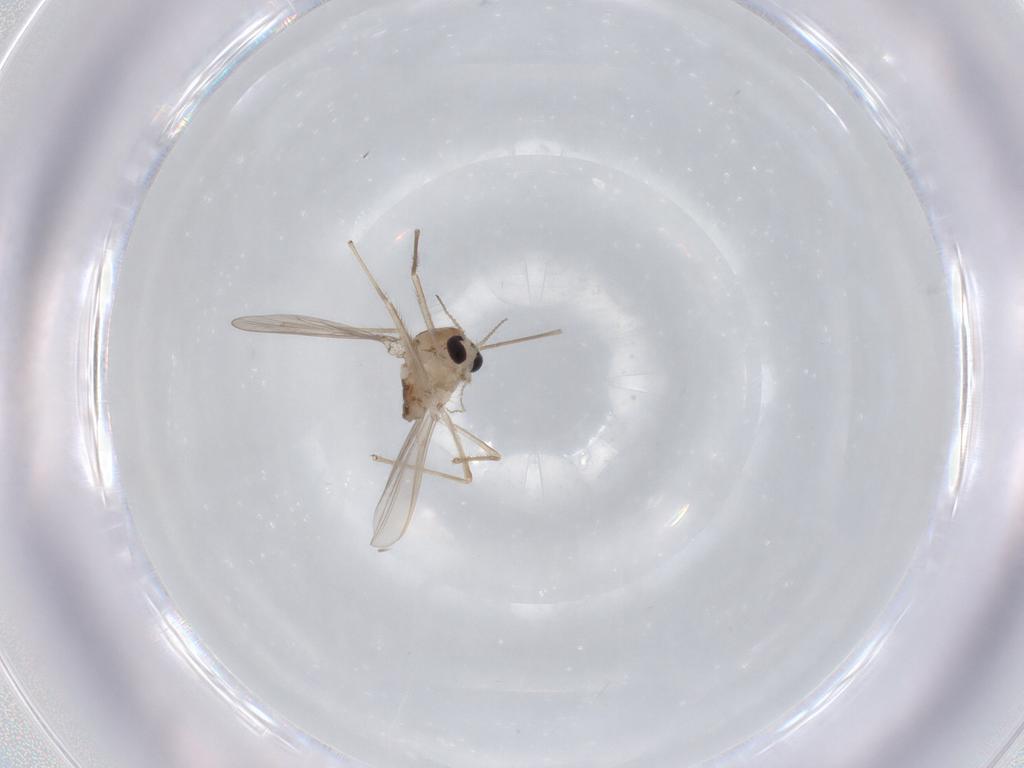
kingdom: Animalia
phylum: Arthropoda
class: Insecta
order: Diptera
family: Chironomidae
